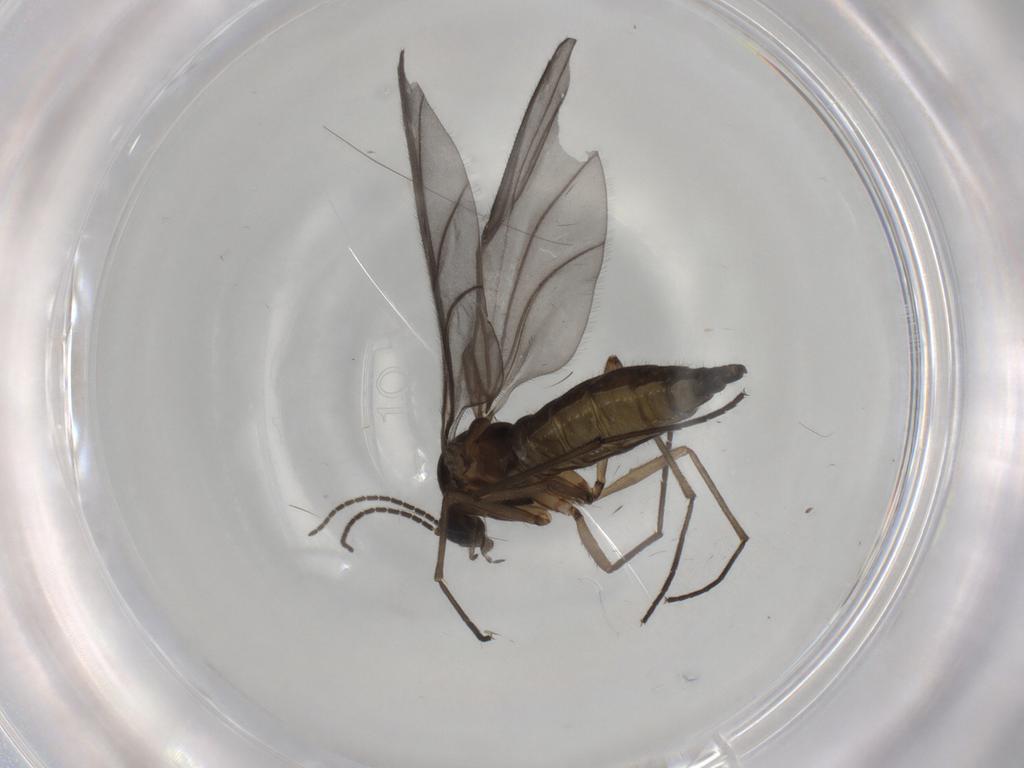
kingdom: Animalia
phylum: Arthropoda
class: Insecta
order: Diptera
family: Sciaridae
